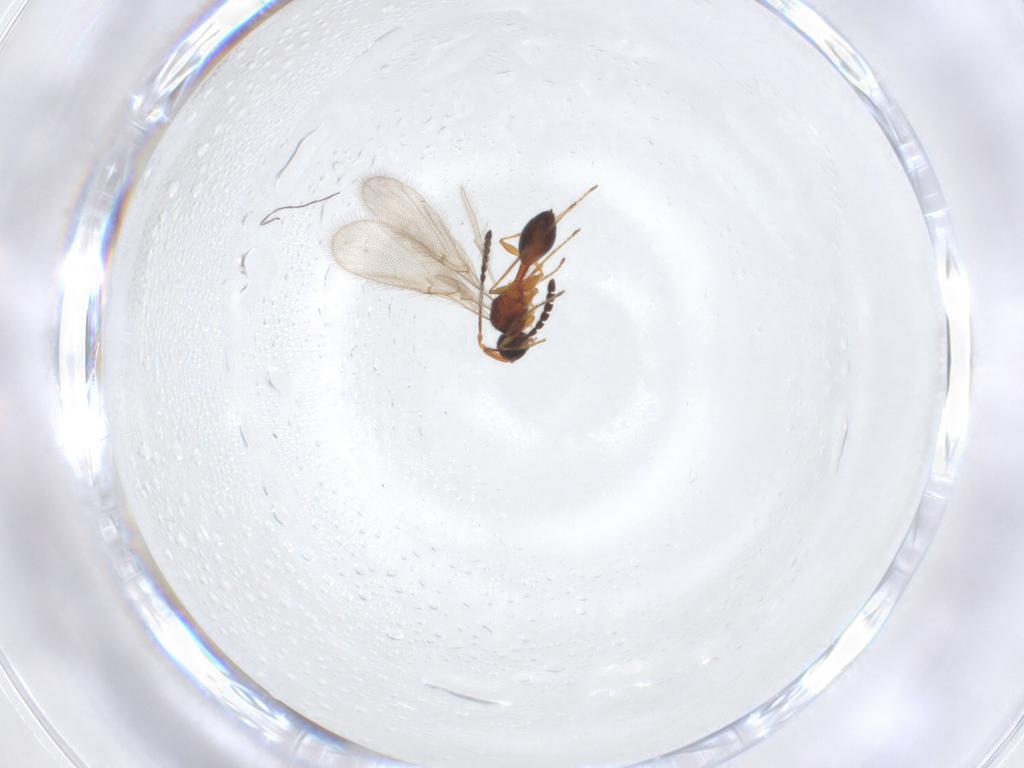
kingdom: Animalia
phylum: Arthropoda
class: Insecta
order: Hymenoptera
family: Diapriidae
